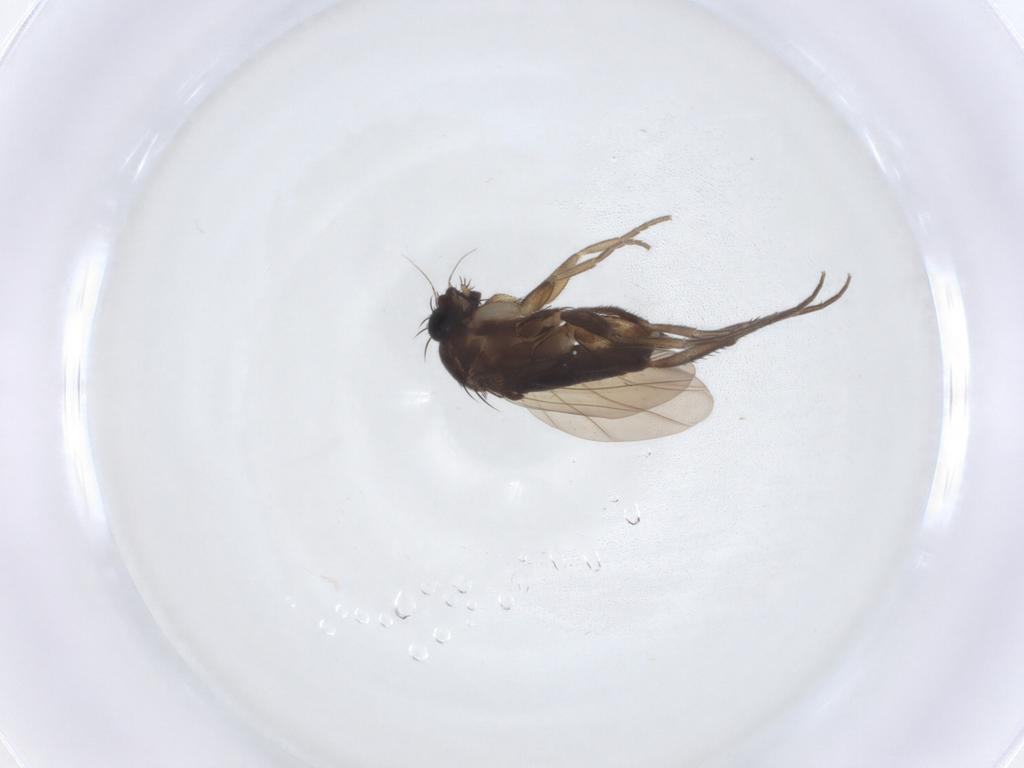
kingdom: Animalia
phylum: Arthropoda
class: Insecta
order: Diptera
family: Phoridae
